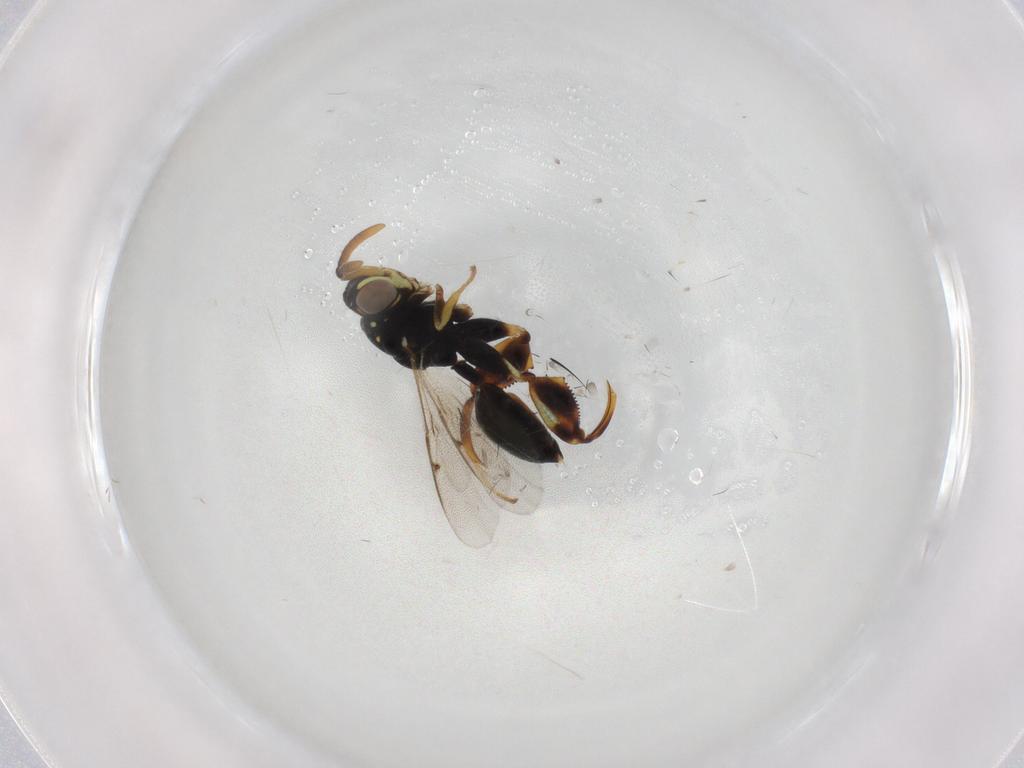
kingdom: Animalia
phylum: Arthropoda
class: Insecta
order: Hymenoptera
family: Chalcididae
